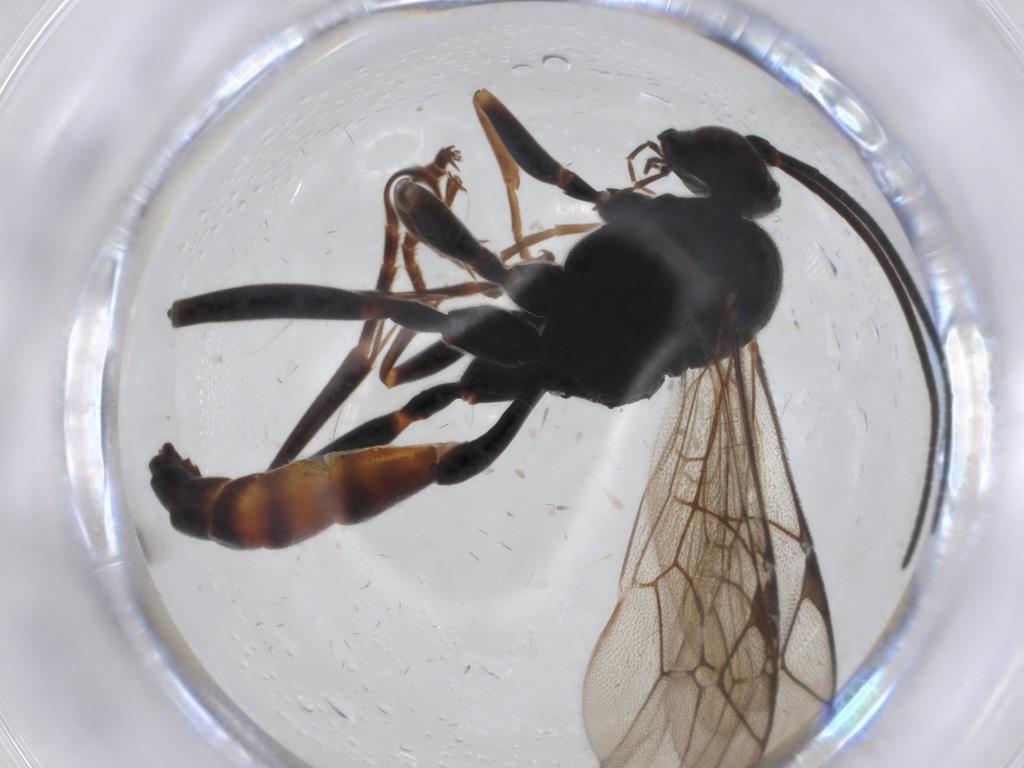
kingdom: Animalia
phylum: Arthropoda
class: Insecta
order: Hymenoptera
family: Scelionidae
